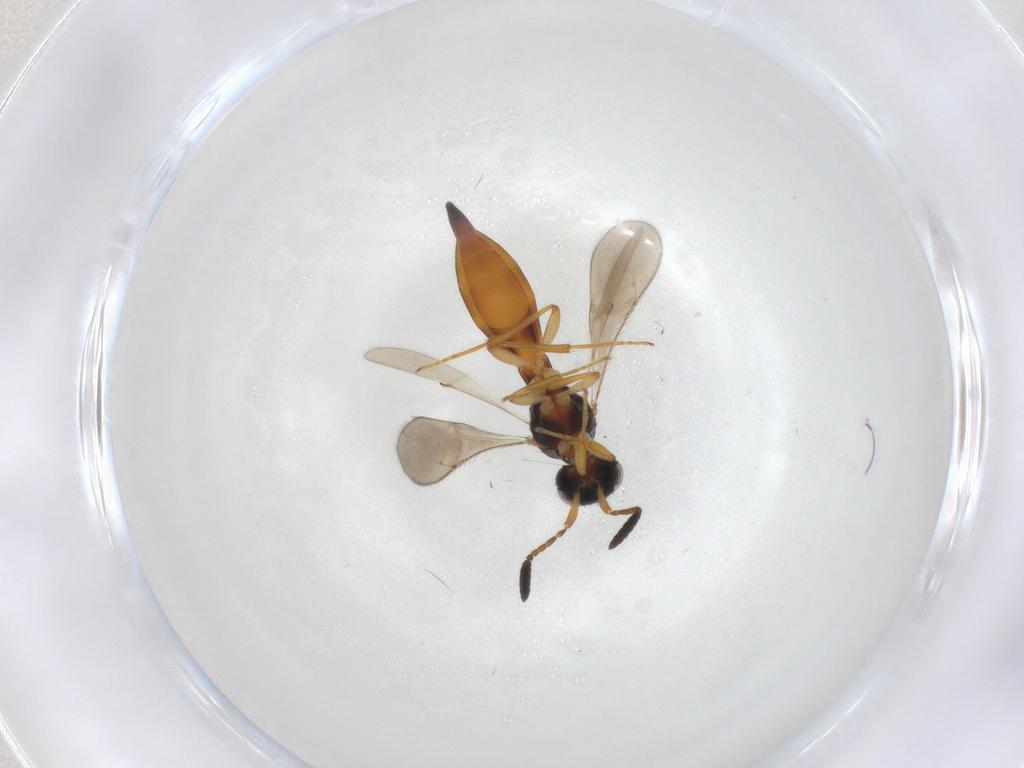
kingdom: Animalia
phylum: Arthropoda
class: Insecta
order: Hymenoptera
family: Scelionidae
